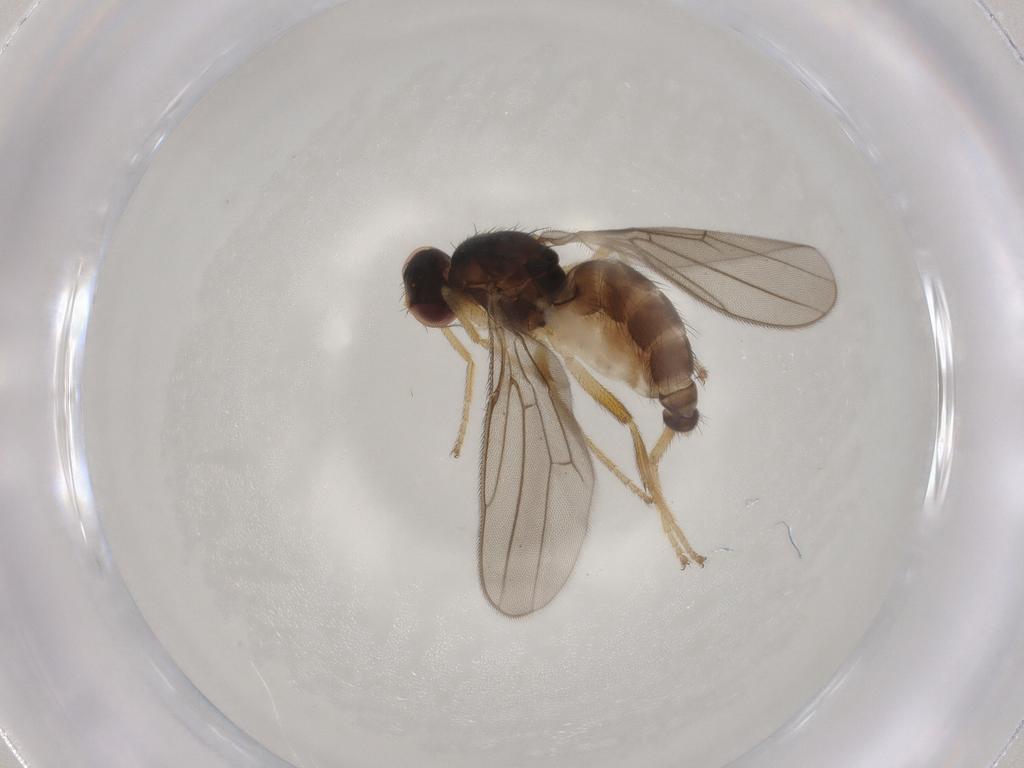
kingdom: Animalia
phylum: Arthropoda
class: Insecta
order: Diptera
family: Chloropidae
